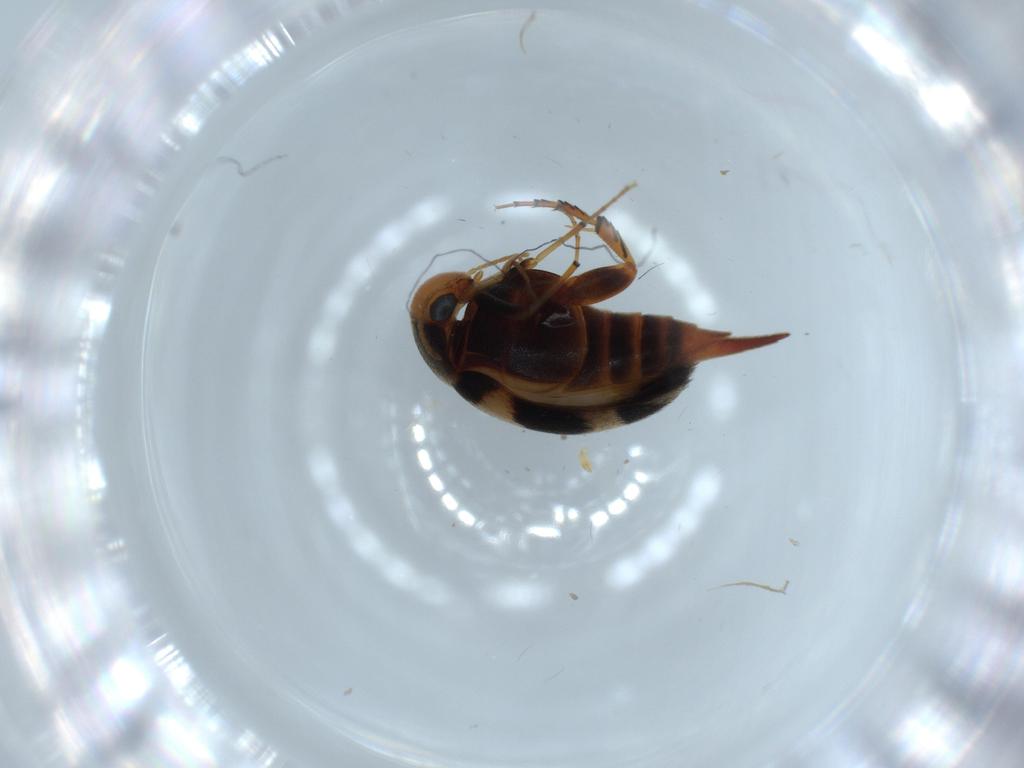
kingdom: Animalia
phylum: Arthropoda
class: Insecta
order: Coleoptera
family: Mordellidae
